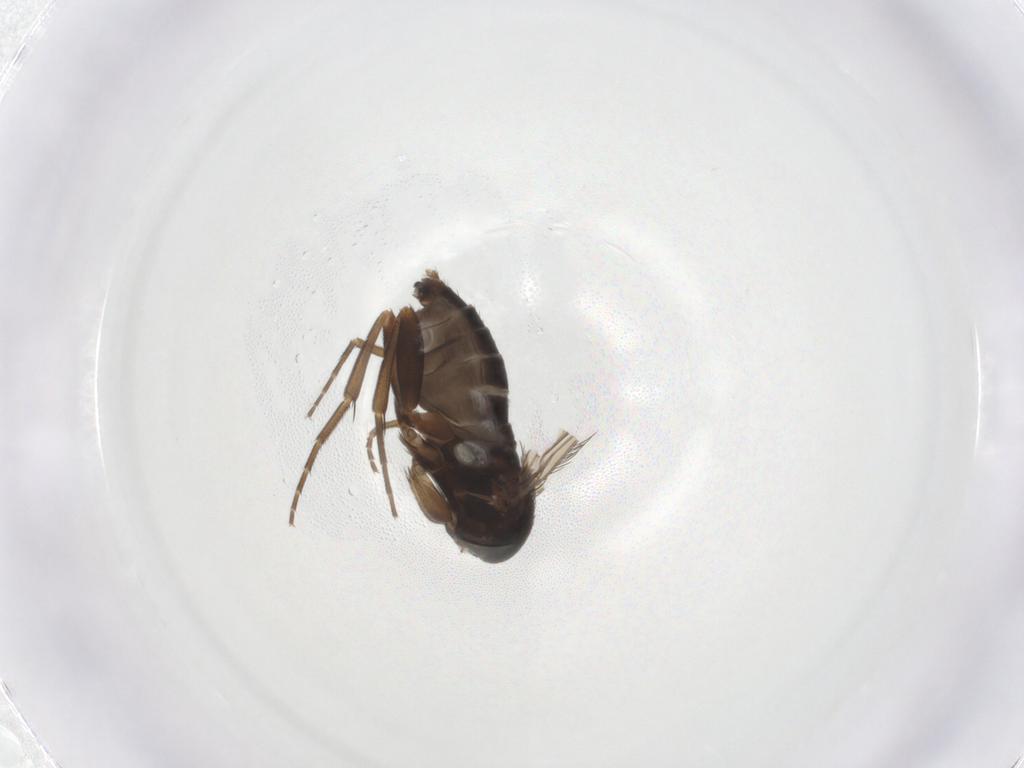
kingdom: Animalia
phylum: Arthropoda
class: Insecta
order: Diptera
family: Phoridae
